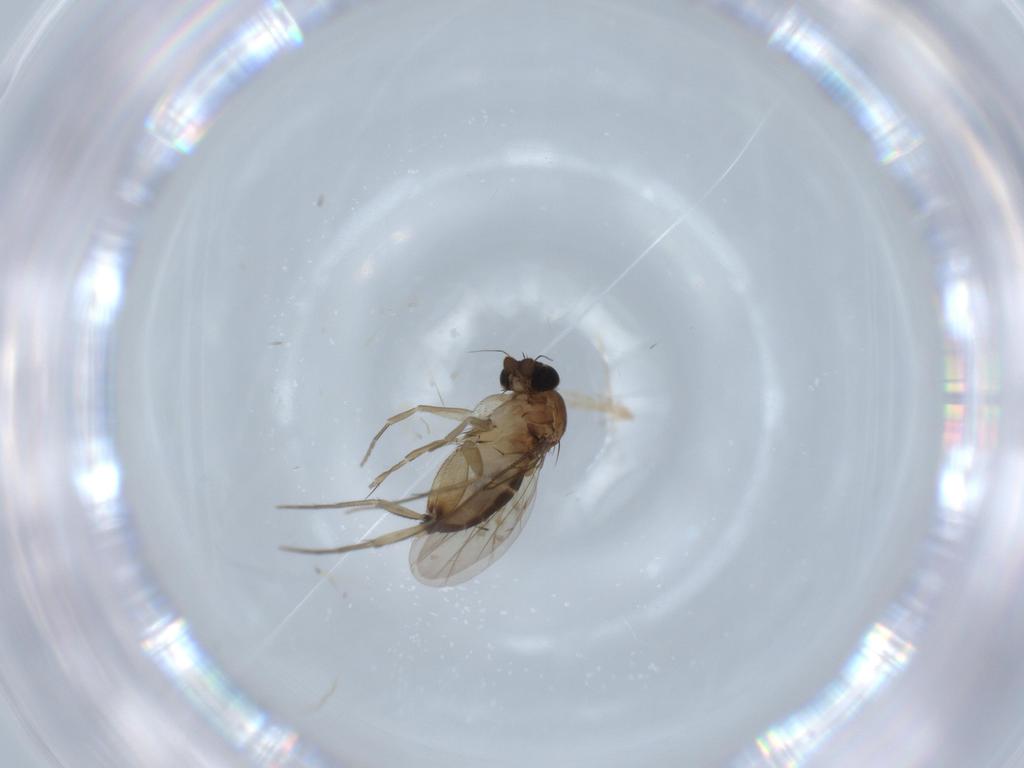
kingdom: Animalia
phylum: Arthropoda
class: Insecta
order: Diptera
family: Phoridae
